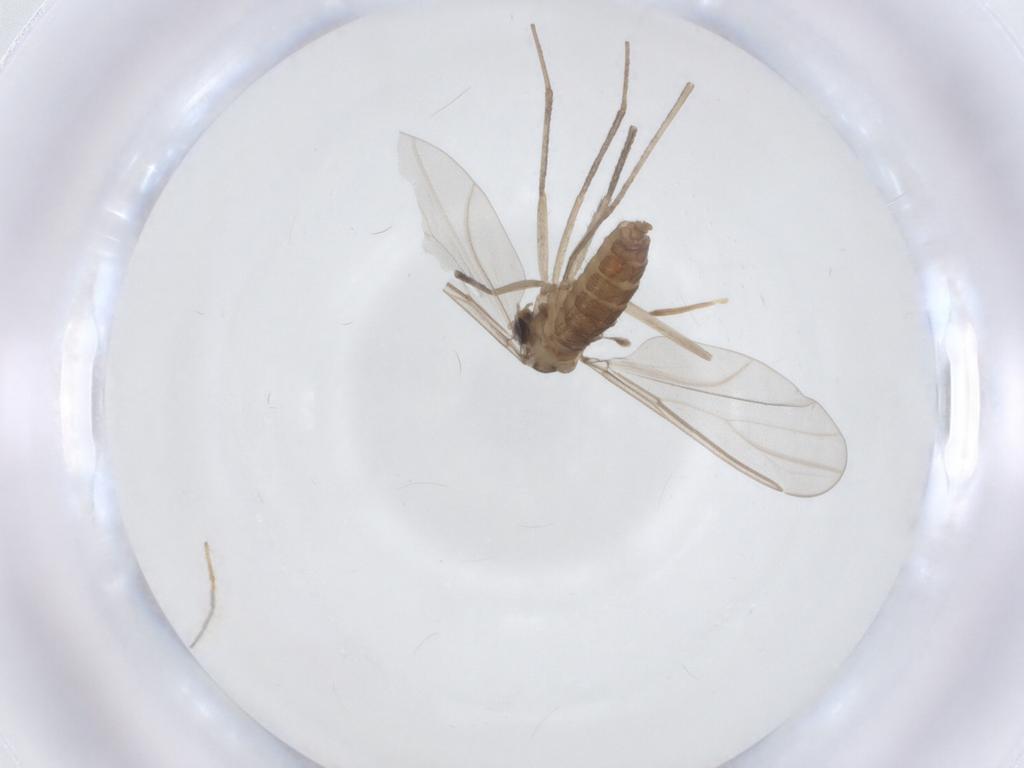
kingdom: Animalia
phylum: Arthropoda
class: Insecta
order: Diptera
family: Cecidomyiidae
